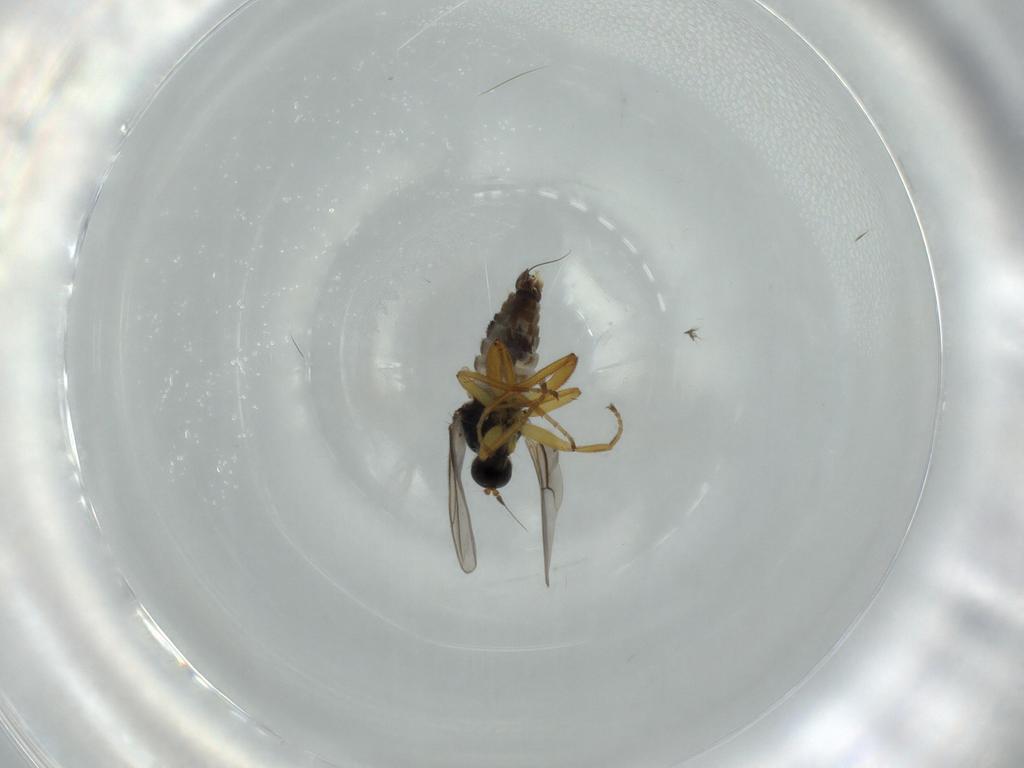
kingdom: Animalia
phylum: Arthropoda
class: Insecta
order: Diptera
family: Hybotidae
